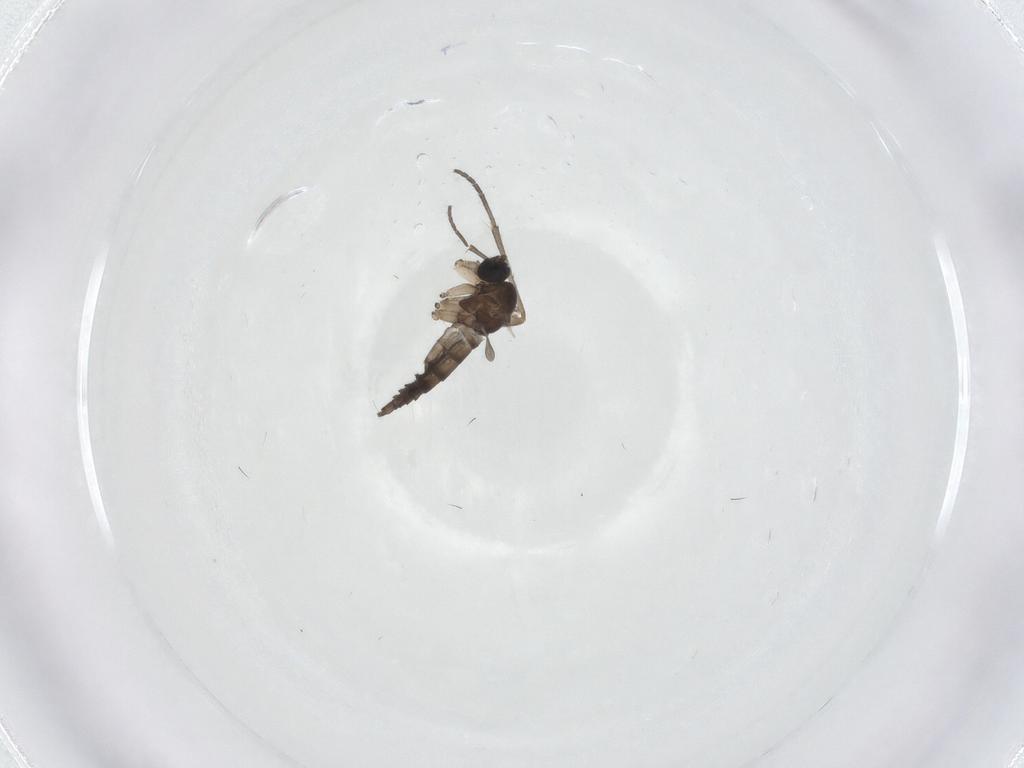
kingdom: Animalia
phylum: Arthropoda
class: Insecta
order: Diptera
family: Sciaridae
